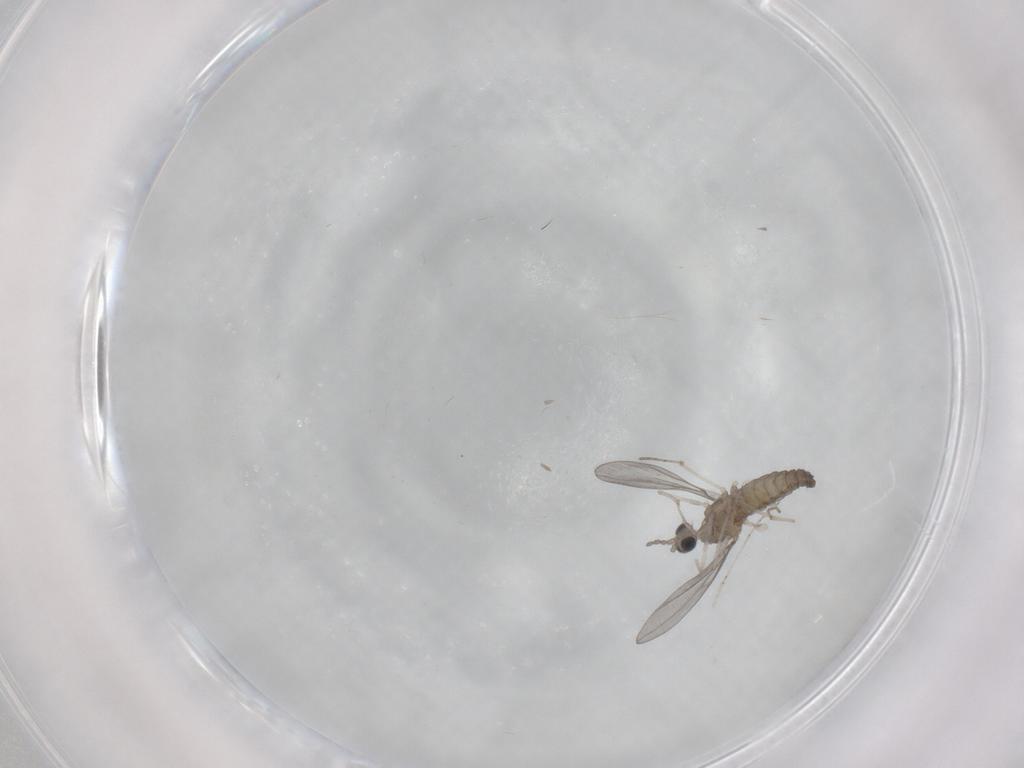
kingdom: Animalia
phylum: Arthropoda
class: Insecta
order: Diptera
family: Cecidomyiidae
